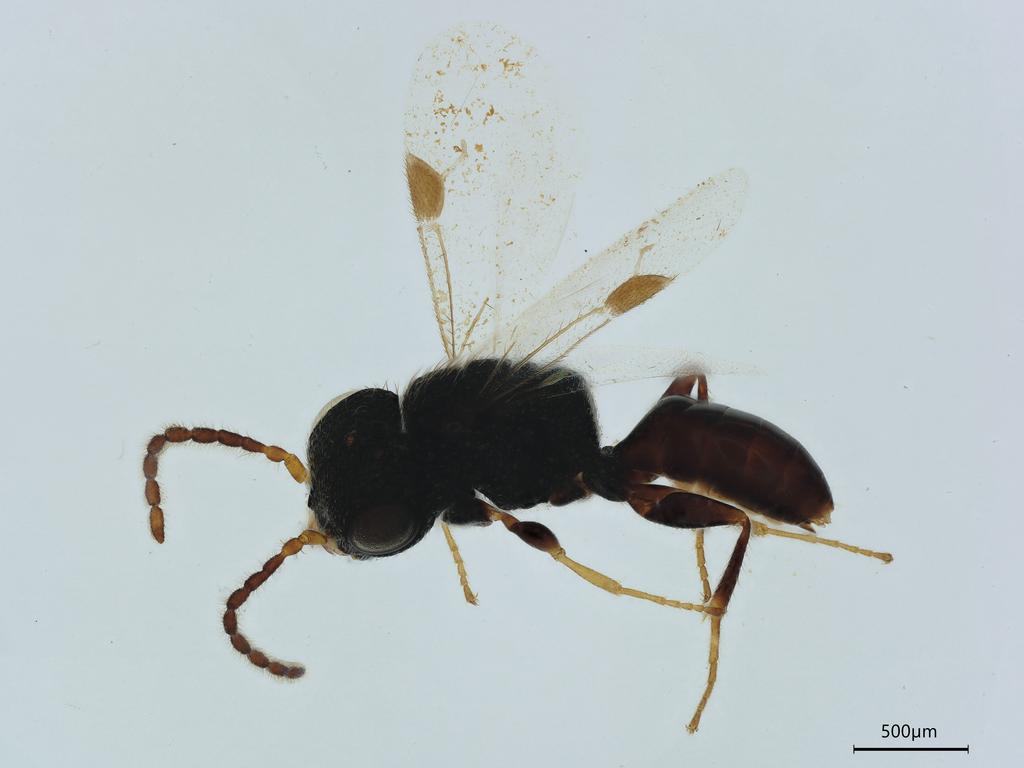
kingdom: Animalia
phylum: Arthropoda
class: Insecta
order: Hymenoptera
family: Dryinidae
